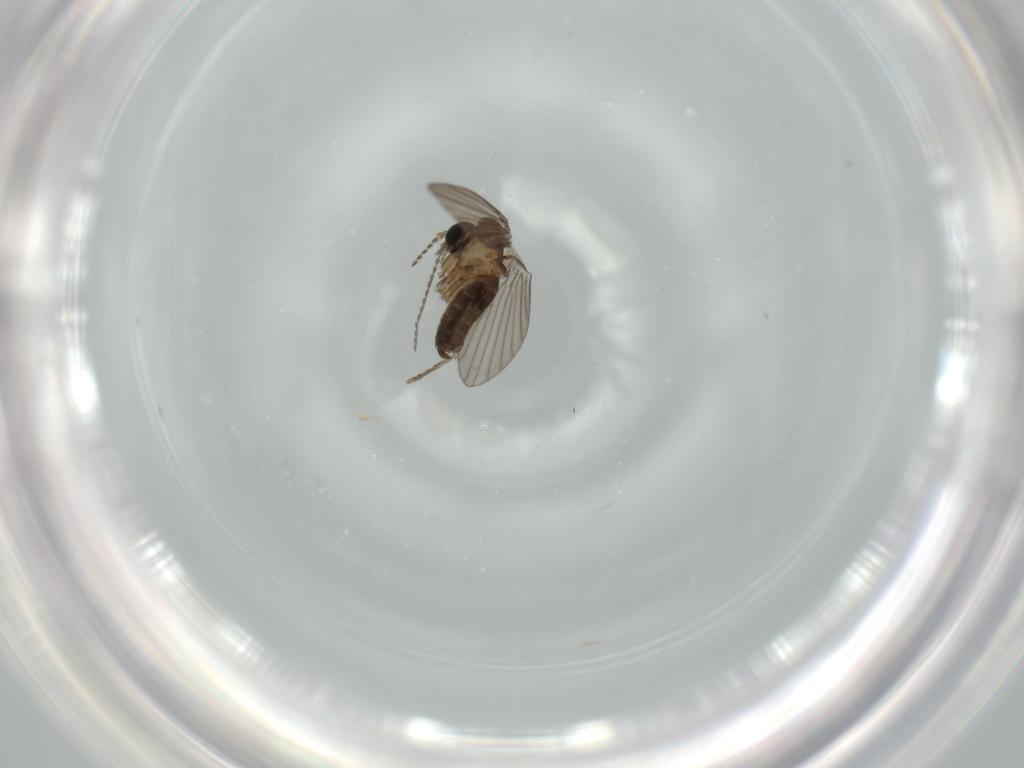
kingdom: Animalia
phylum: Arthropoda
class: Insecta
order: Diptera
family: Psychodidae
